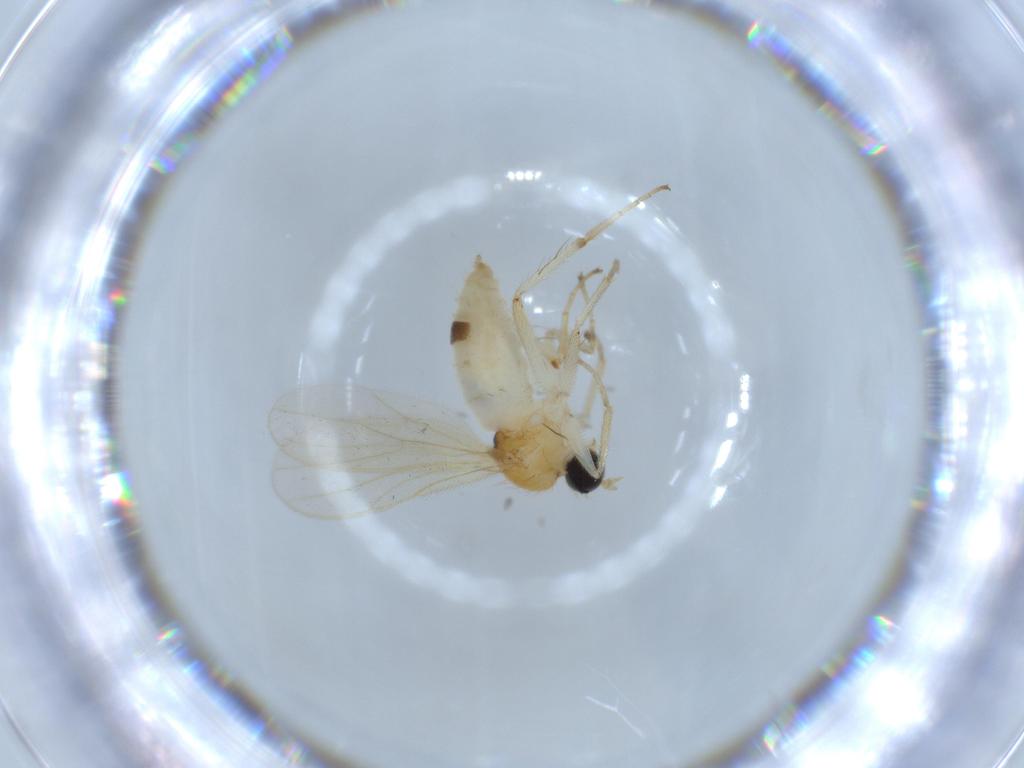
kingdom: Animalia
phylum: Arthropoda
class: Insecta
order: Diptera
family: Hybotidae
